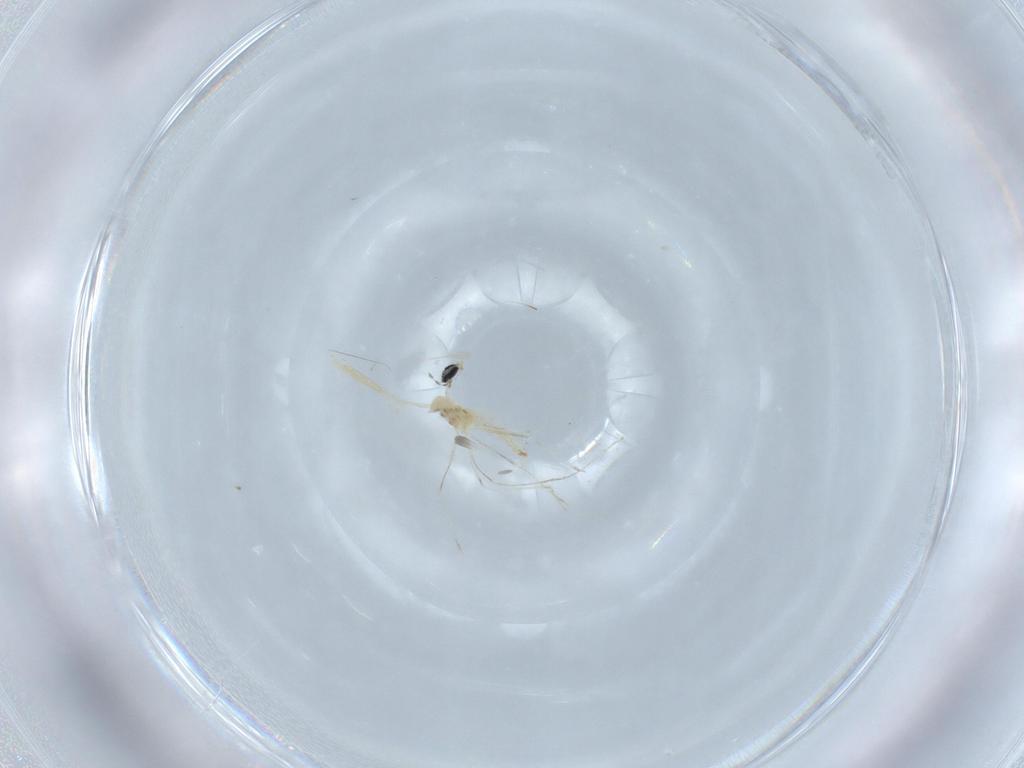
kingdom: Animalia
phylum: Arthropoda
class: Insecta
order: Diptera
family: Cecidomyiidae
